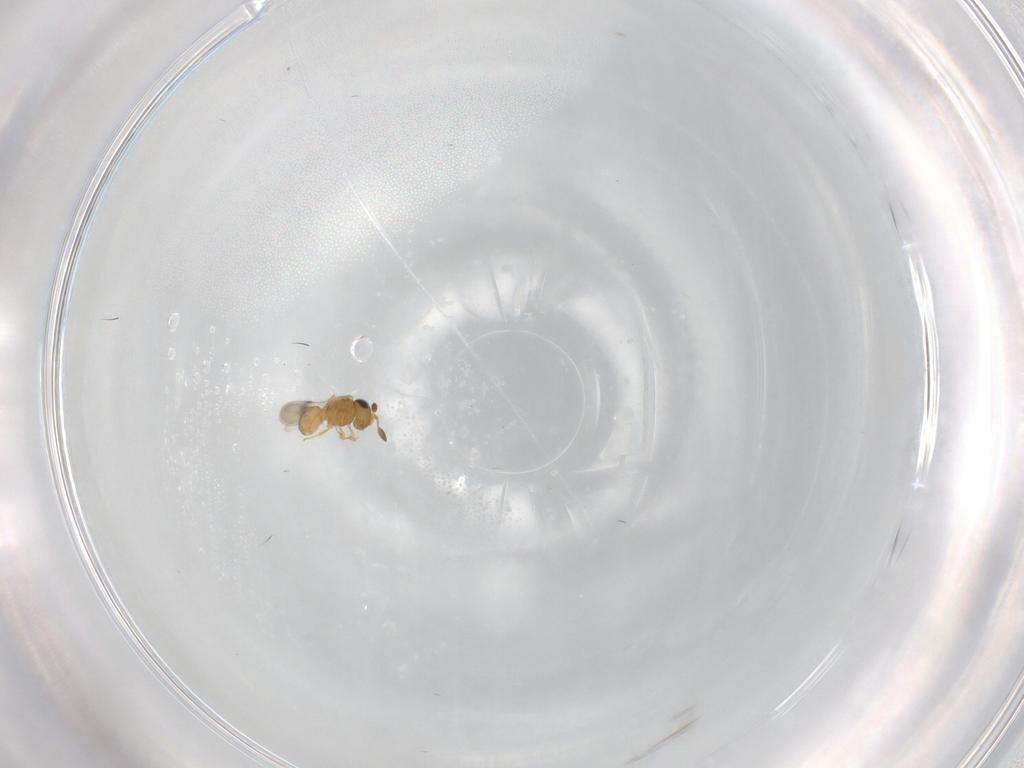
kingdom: Animalia
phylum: Arthropoda
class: Insecta
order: Hymenoptera
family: Scelionidae
